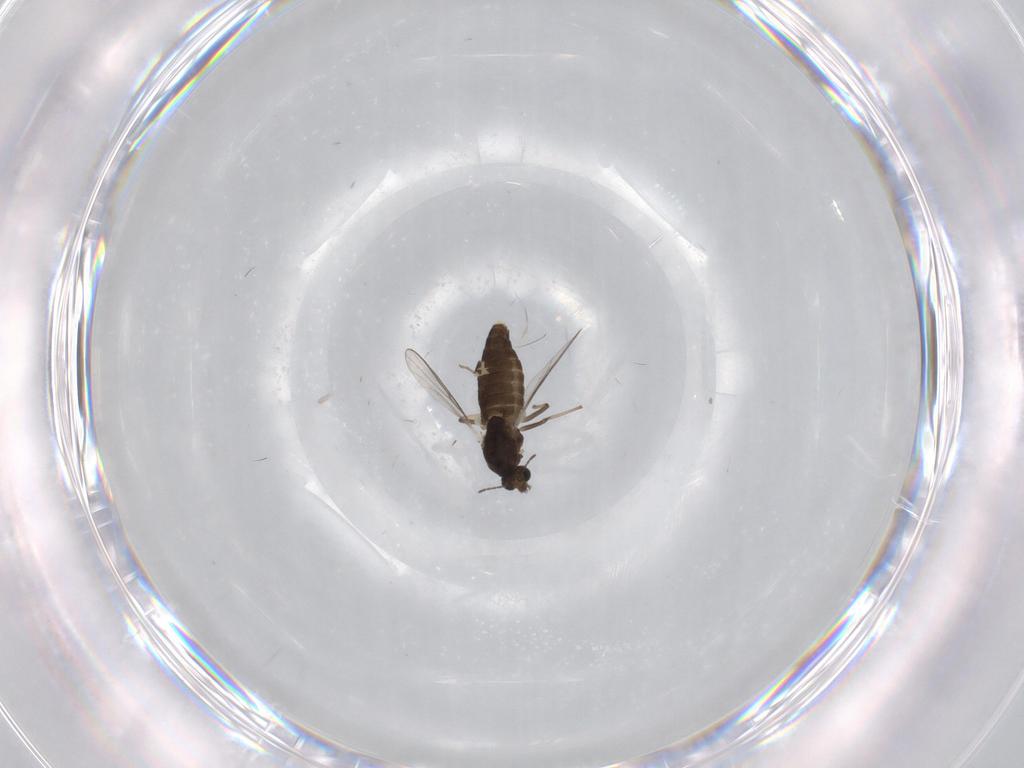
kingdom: Animalia
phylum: Arthropoda
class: Insecta
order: Diptera
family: Chironomidae
